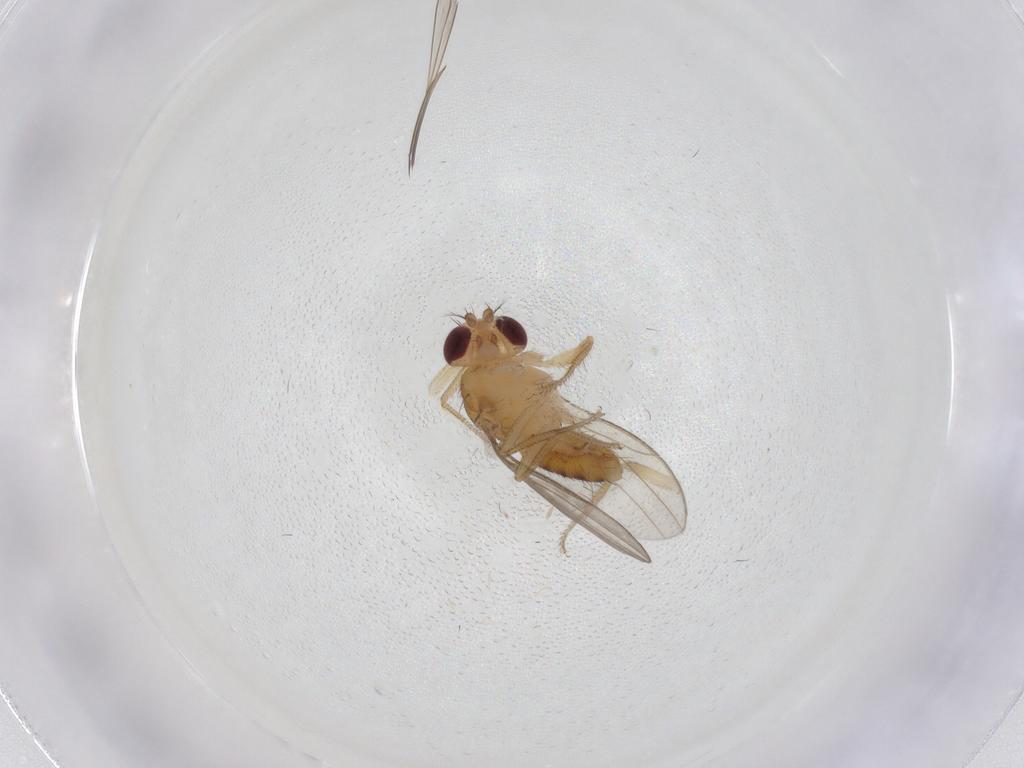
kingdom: Animalia
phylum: Arthropoda
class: Insecta
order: Diptera
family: Drosophilidae
